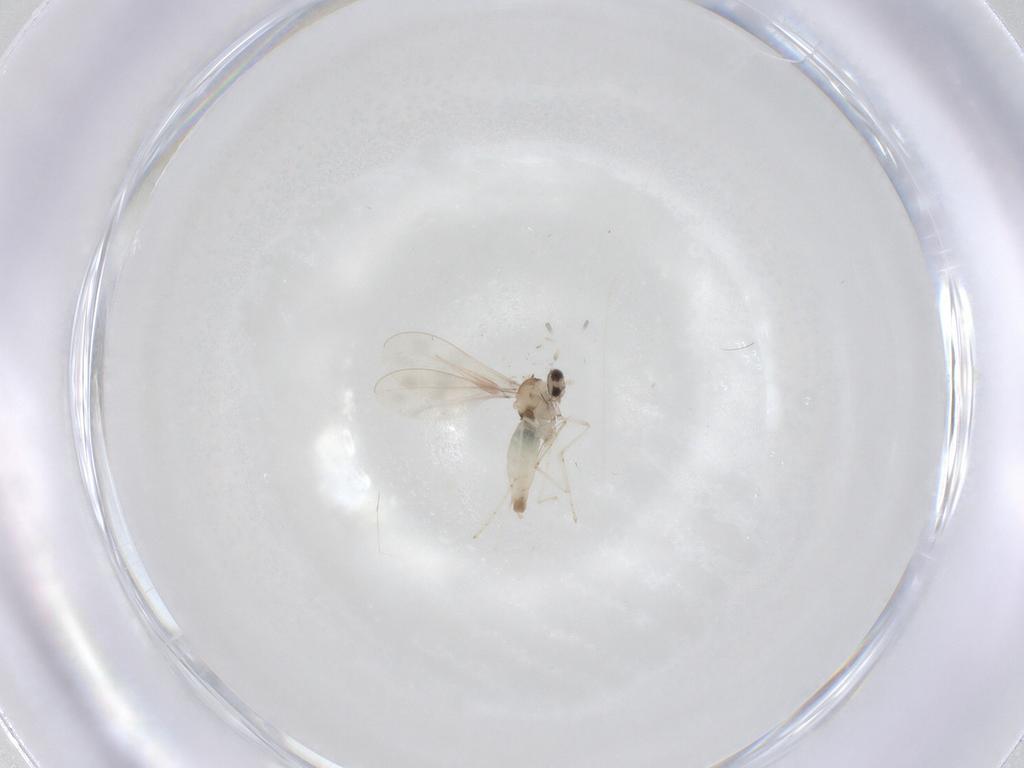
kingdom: Animalia
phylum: Arthropoda
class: Insecta
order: Diptera
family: Cecidomyiidae
